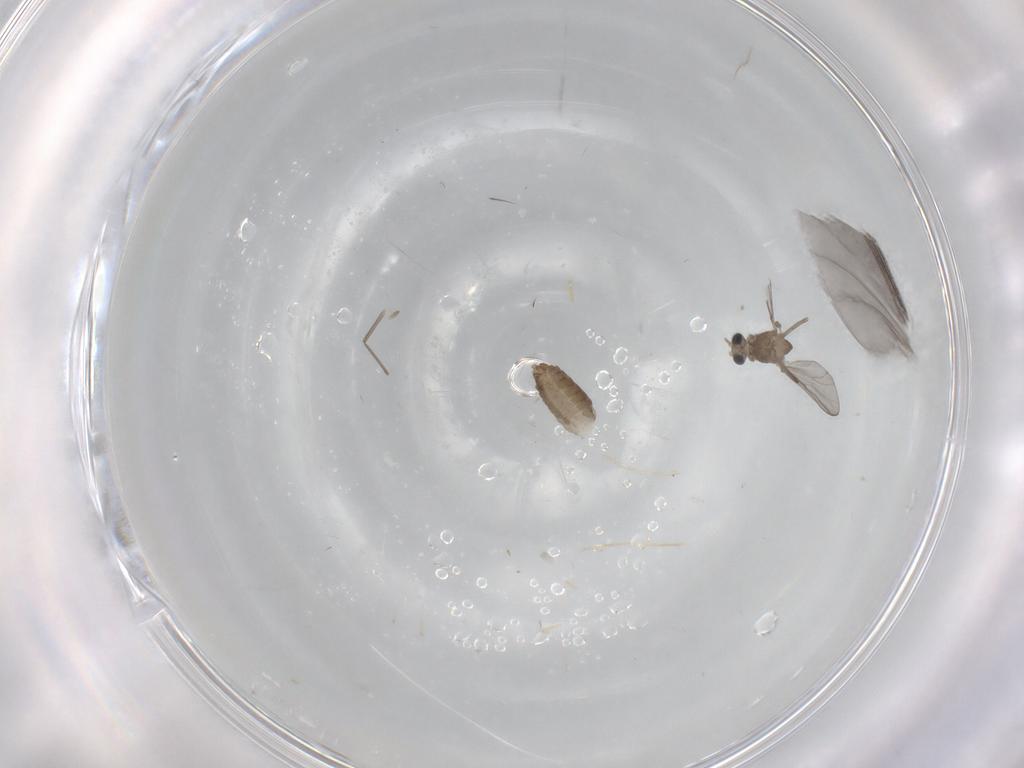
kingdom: Animalia
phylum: Arthropoda
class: Insecta
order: Diptera
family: Chironomidae
